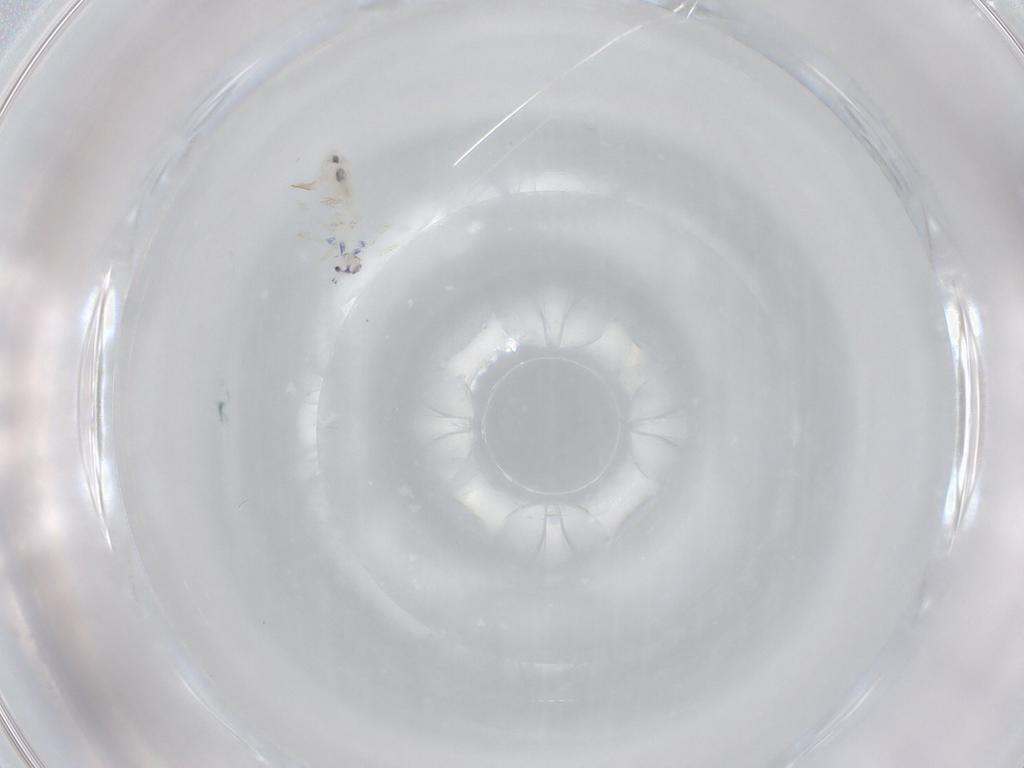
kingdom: Animalia
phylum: Arthropoda
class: Collembola
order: Entomobryomorpha
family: Entomobryidae
